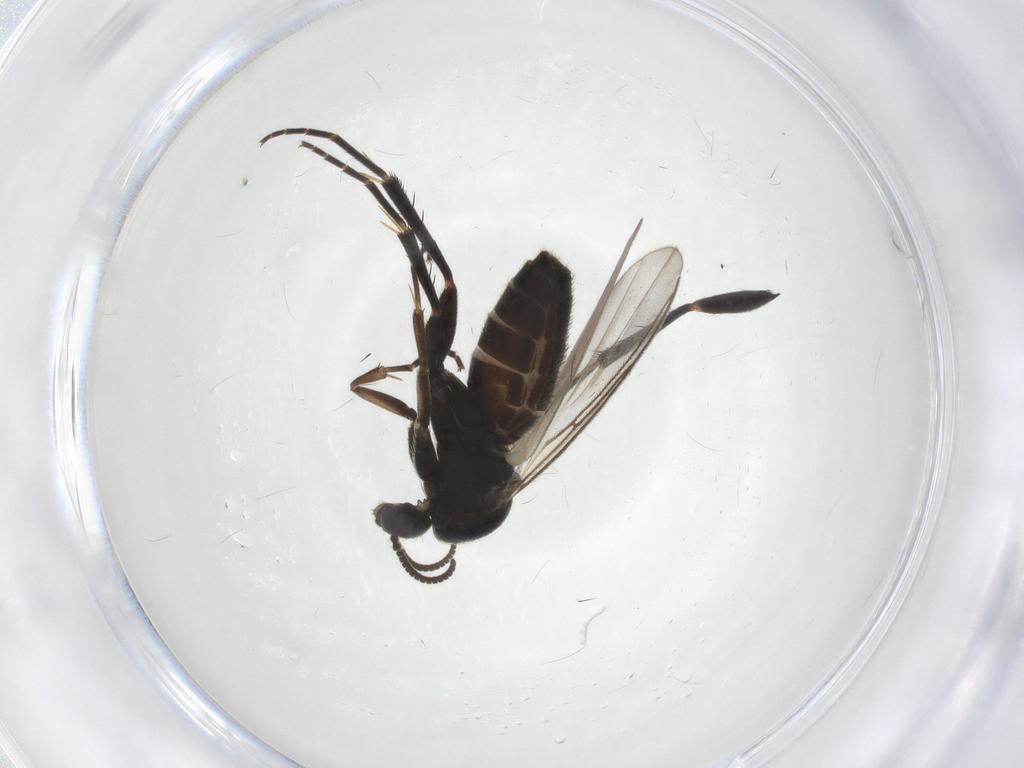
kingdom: Animalia
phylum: Arthropoda
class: Insecta
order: Diptera
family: Mycetophilidae
